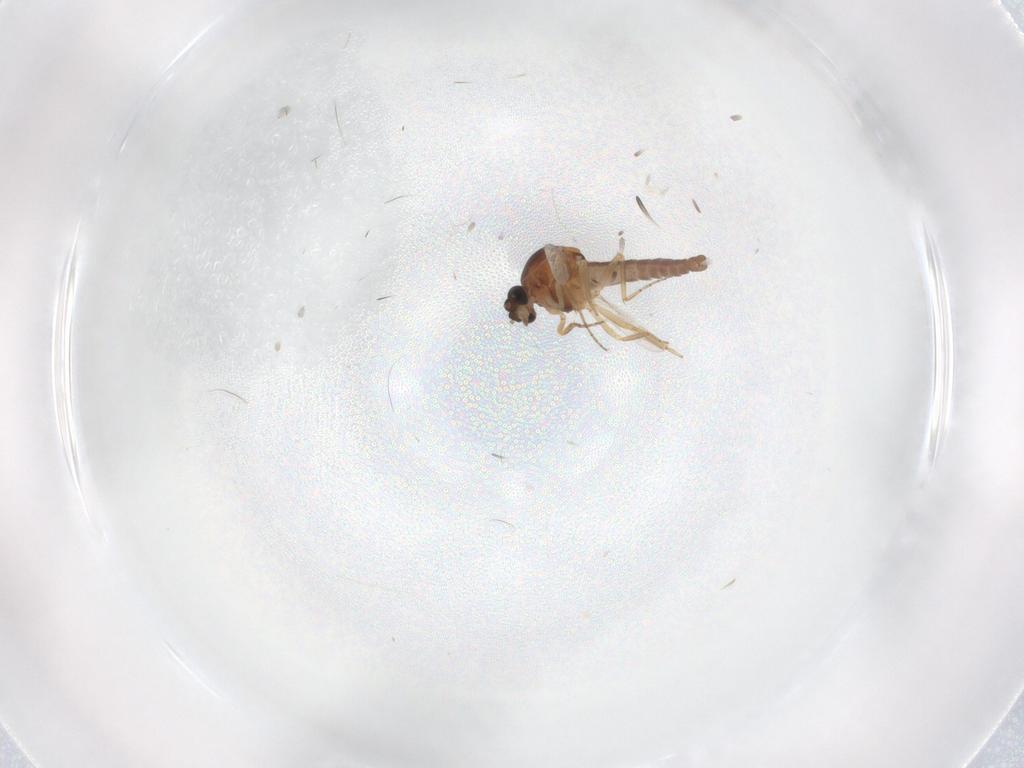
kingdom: Animalia
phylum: Arthropoda
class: Insecta
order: Diptera
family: Ceratopogonidae
